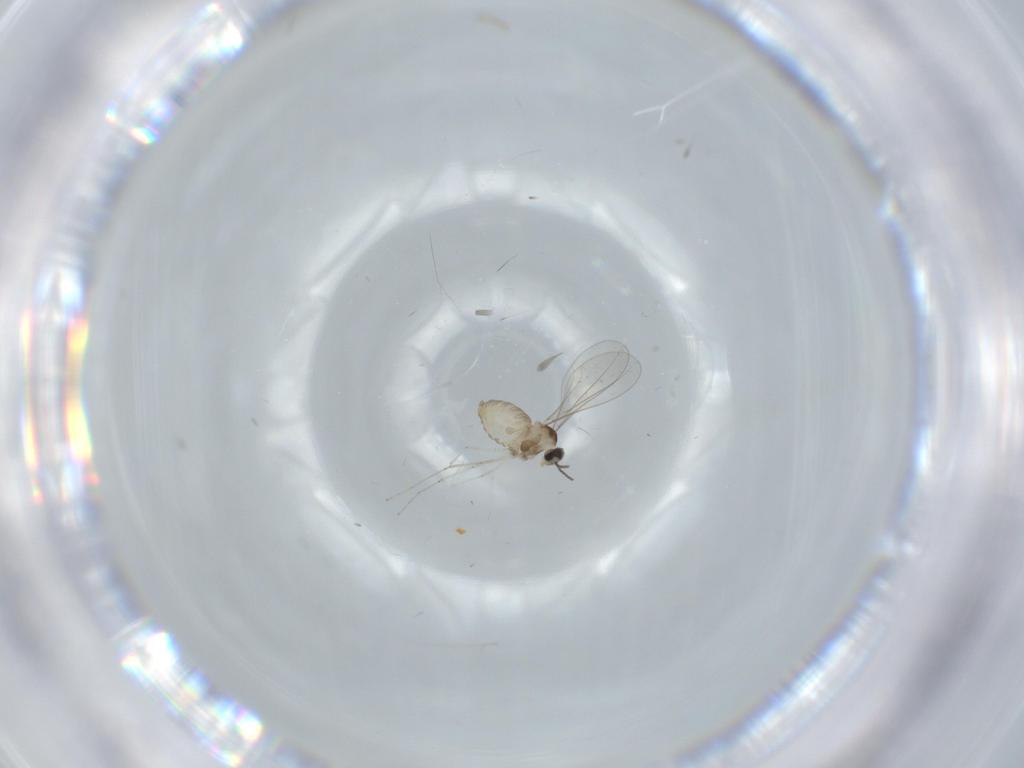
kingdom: Animalia
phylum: Arthropoda
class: Insecta
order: Diptera
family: Cecidomyiidae
